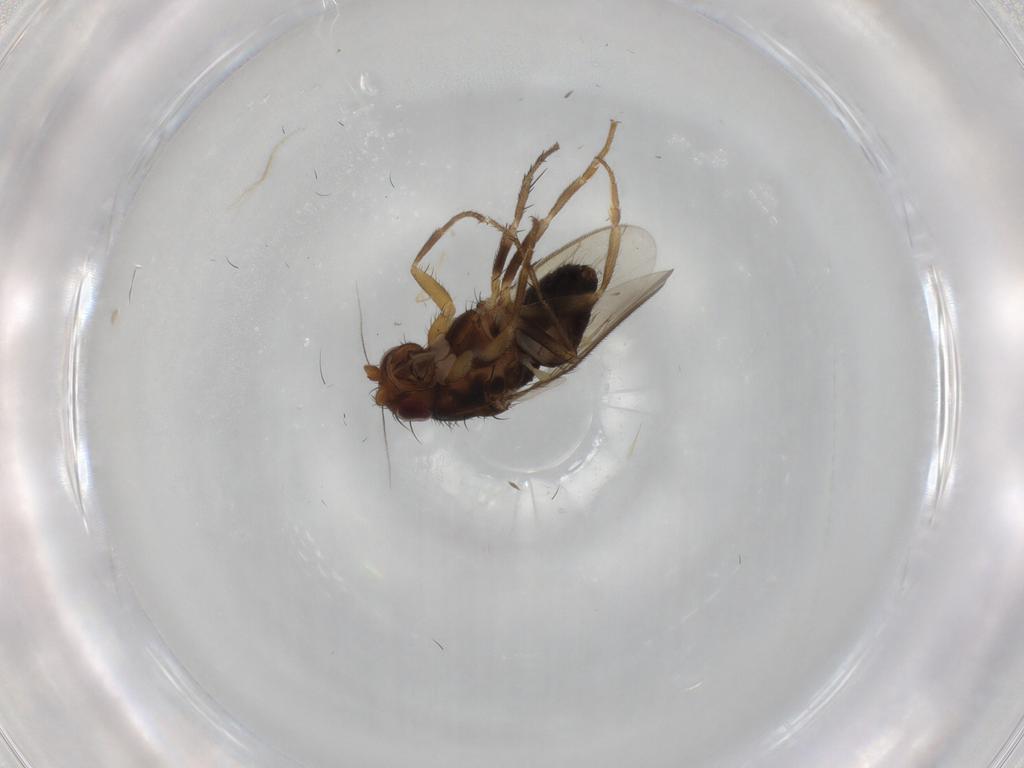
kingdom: Animalia
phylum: Arthropoda
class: Insecta
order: Diptera
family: Sphaeroceridae
